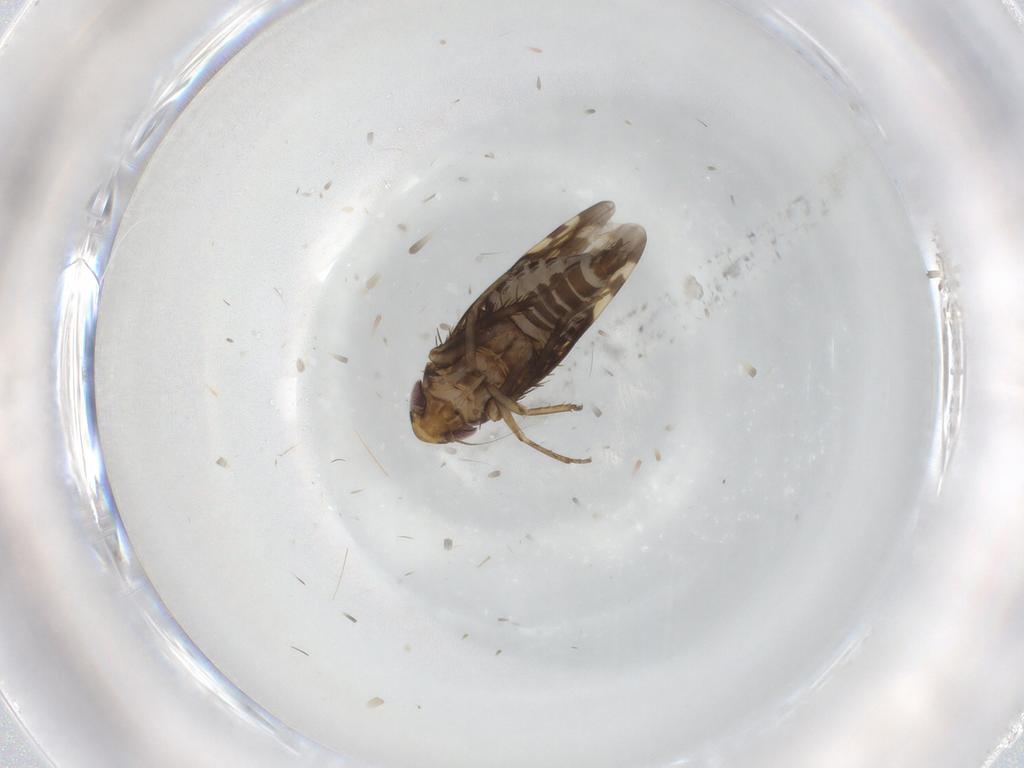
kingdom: Animalia
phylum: Arthropoda
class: Insecta
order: Hemiptera
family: Cicadellidae
